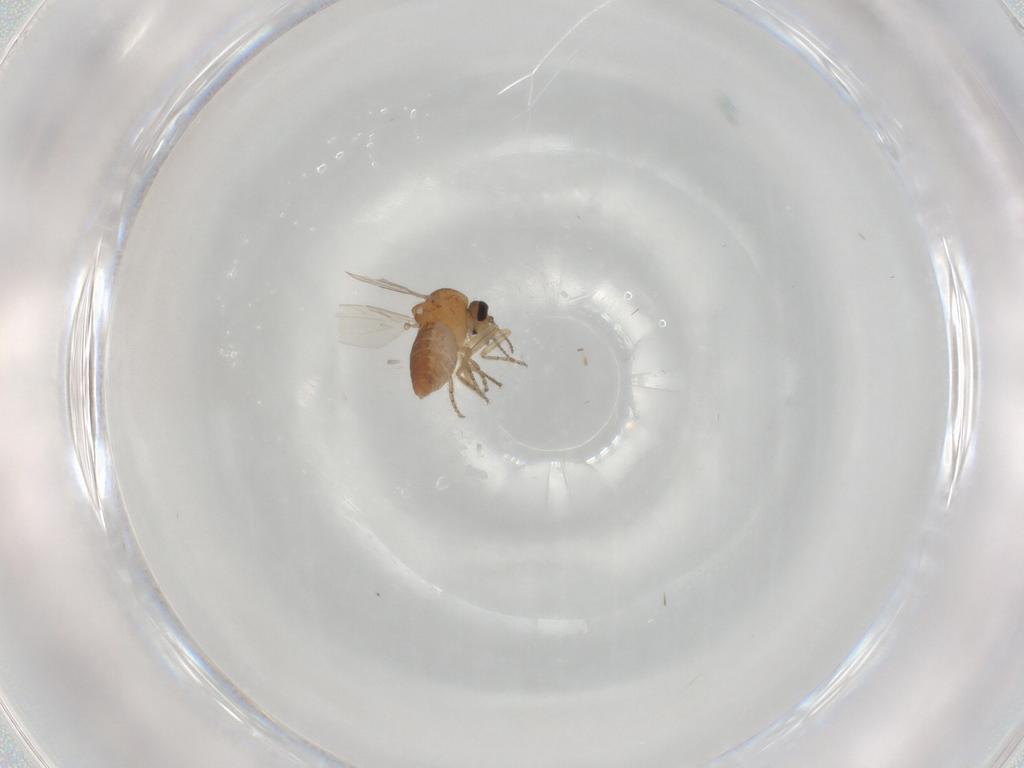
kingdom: Animalia
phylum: Arthropoda
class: Insecta
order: Diptera
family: Ceratopogonidae
